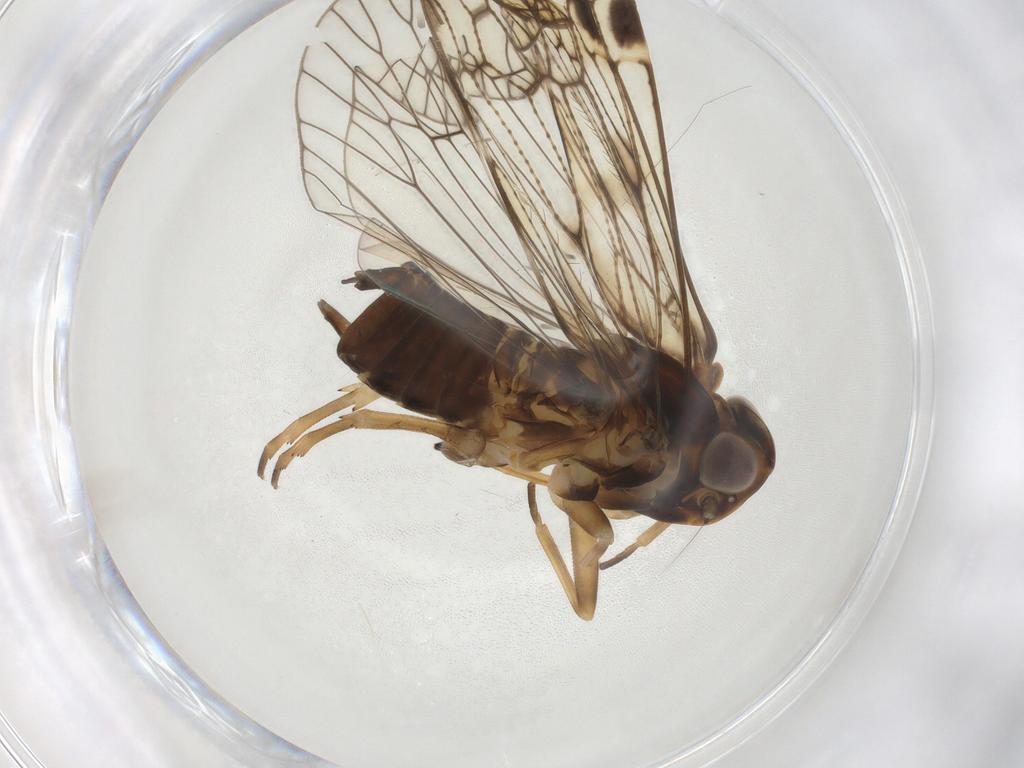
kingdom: Animalia
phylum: Arthropoda
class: Insecta
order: Hemiptera
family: Cixiidae
